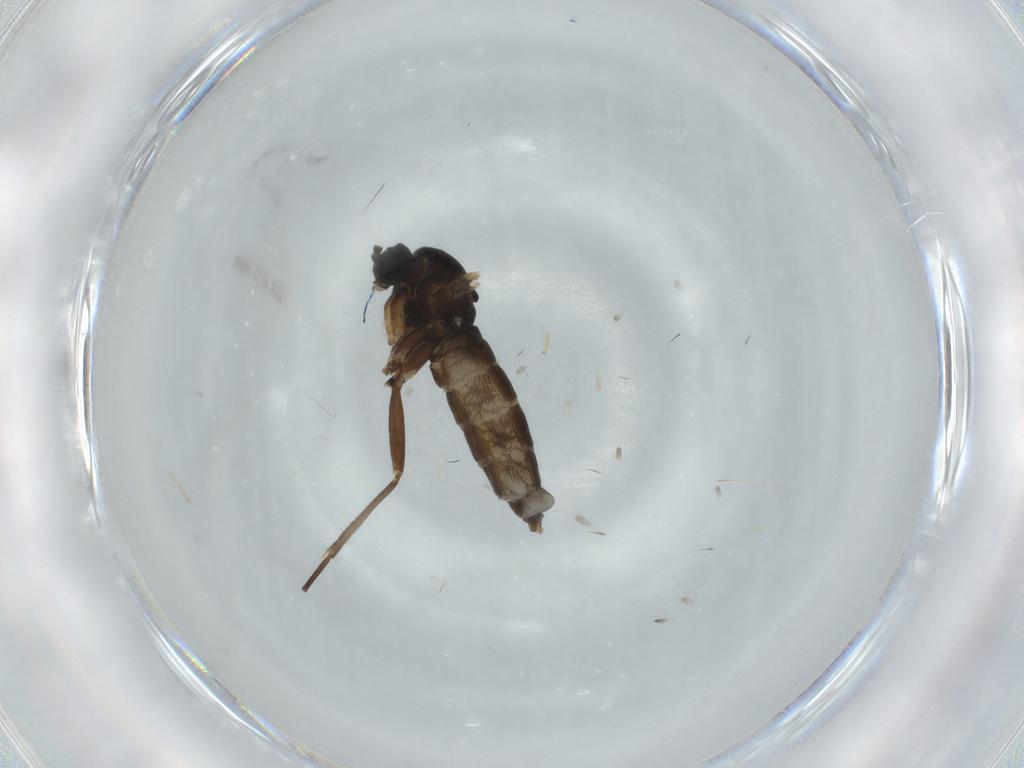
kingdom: Animalia
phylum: Arthropoda
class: Insecta
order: Diptera
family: Sciaridae
